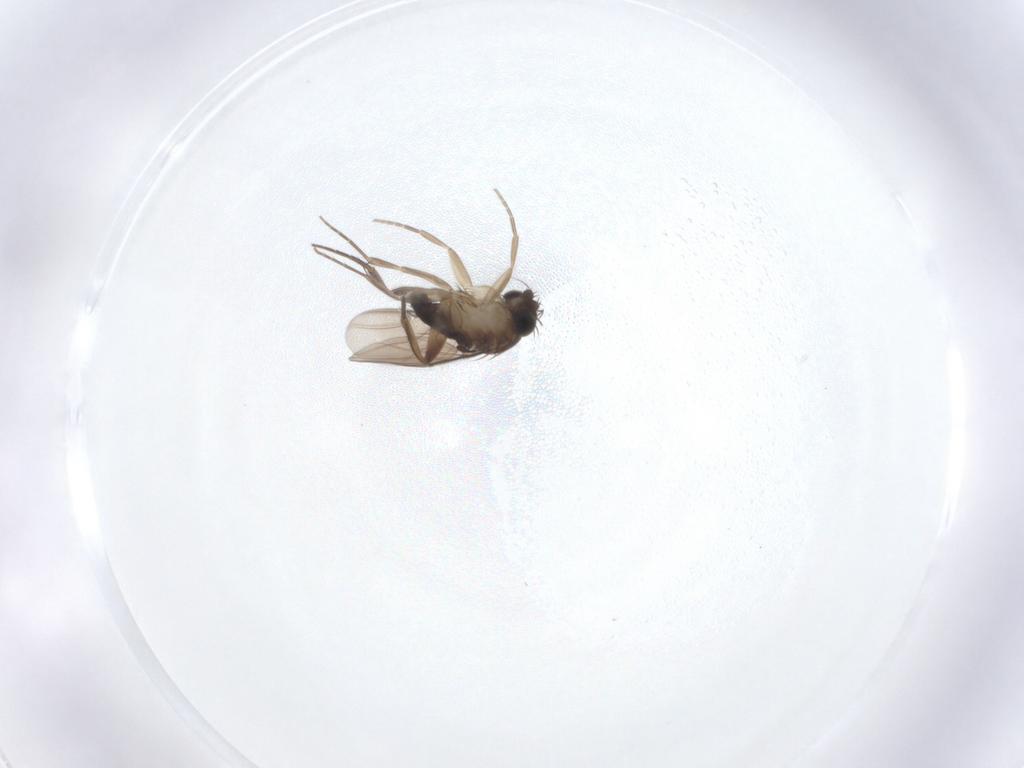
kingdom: Animalia
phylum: Arthropoda
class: Insecta
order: Diptera
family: Phoridae
